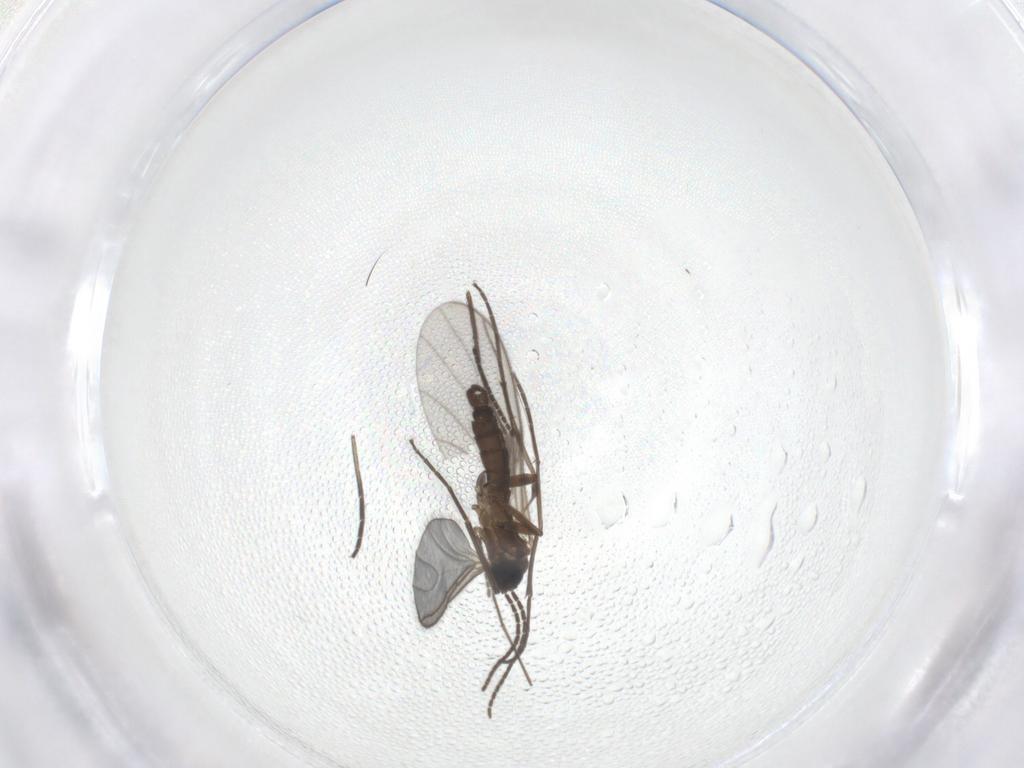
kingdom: Animalia
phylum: Arthropoda
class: Insecta
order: Diptera
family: Sciaridae
